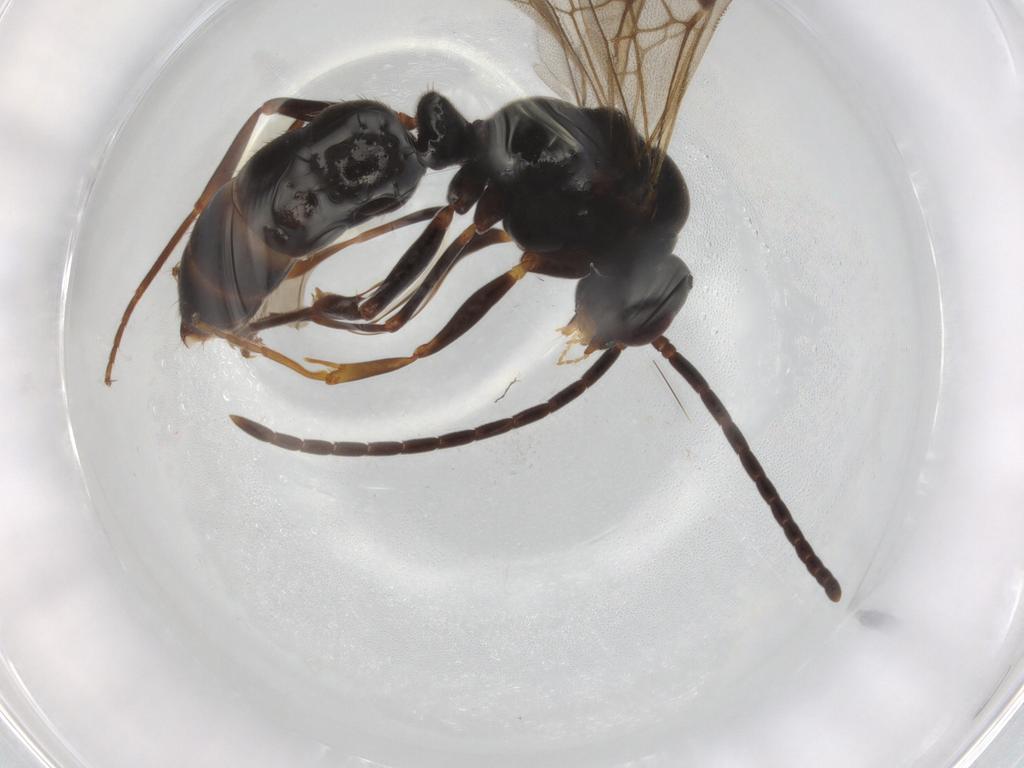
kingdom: Animalia
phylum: Arthropoda
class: Insecta
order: Hymenoptera
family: Formicidae
